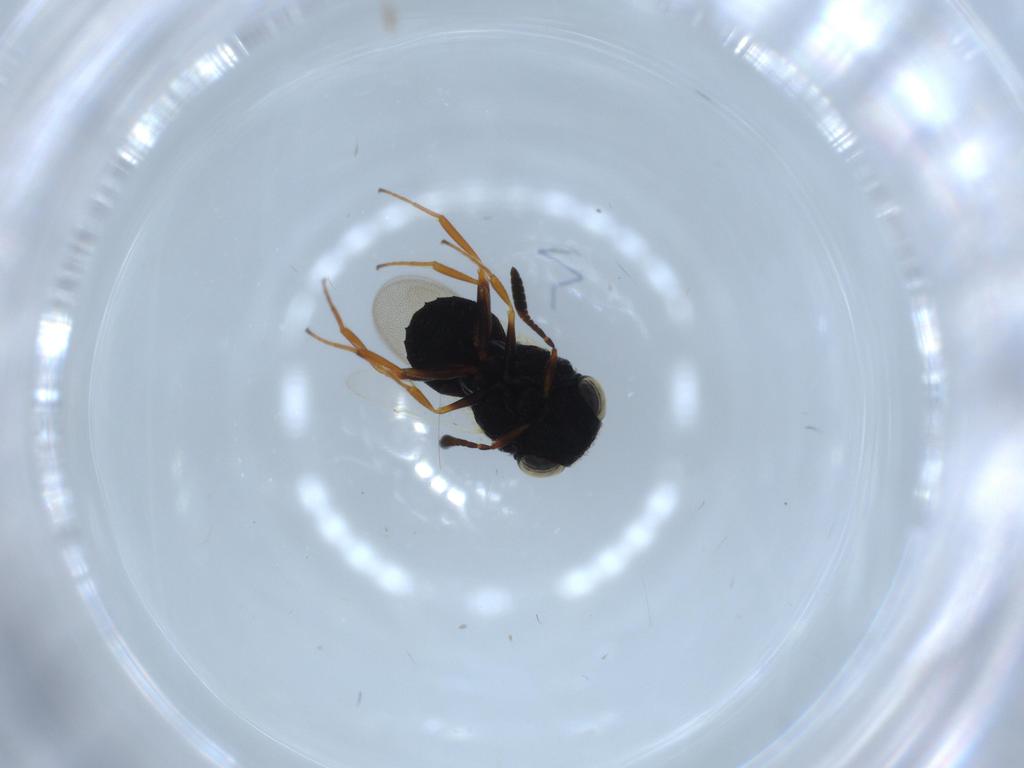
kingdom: Animalia
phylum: Arthropoda
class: Insecta
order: Hymenoptera
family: Scelionidae
